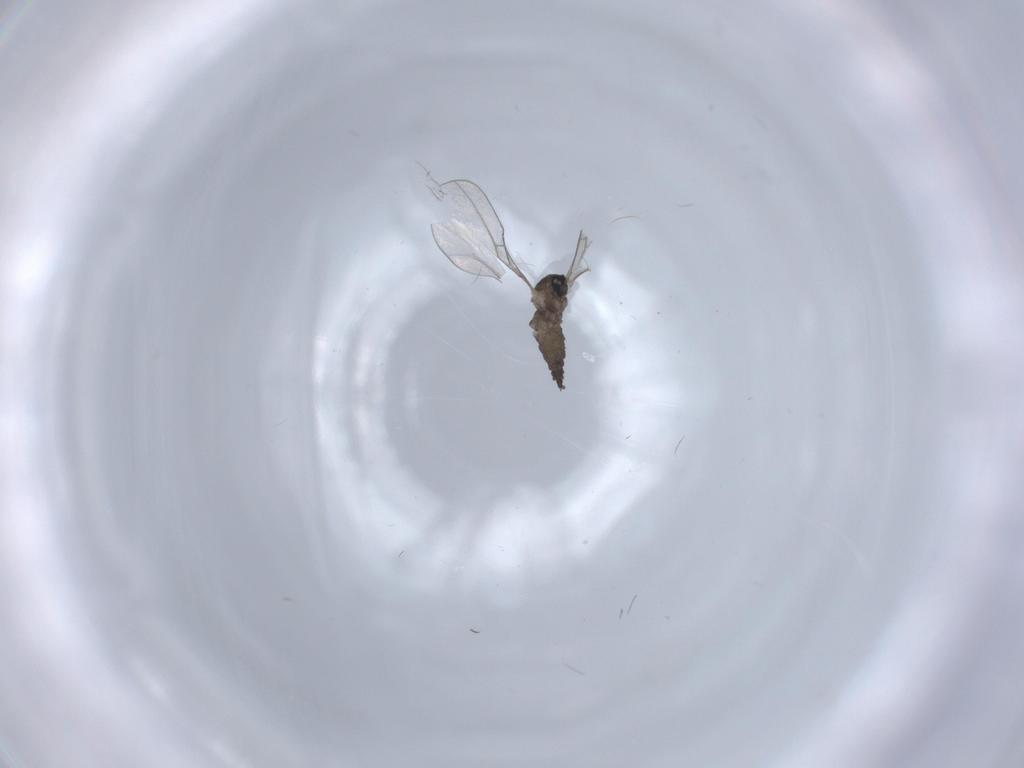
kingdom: Animalia
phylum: Arthropoda
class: Insecta
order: Diptera
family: Cecidomyiidae
